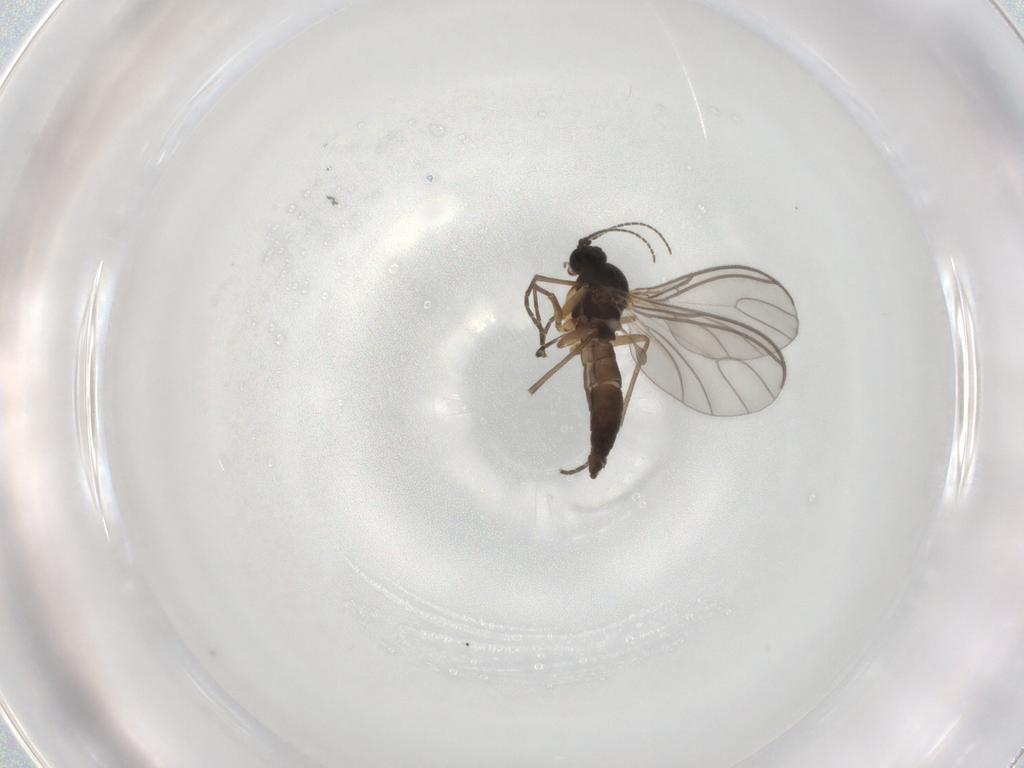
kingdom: Animalia
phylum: Arthropoda
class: Insecta
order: Diptera
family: Sciaridae
